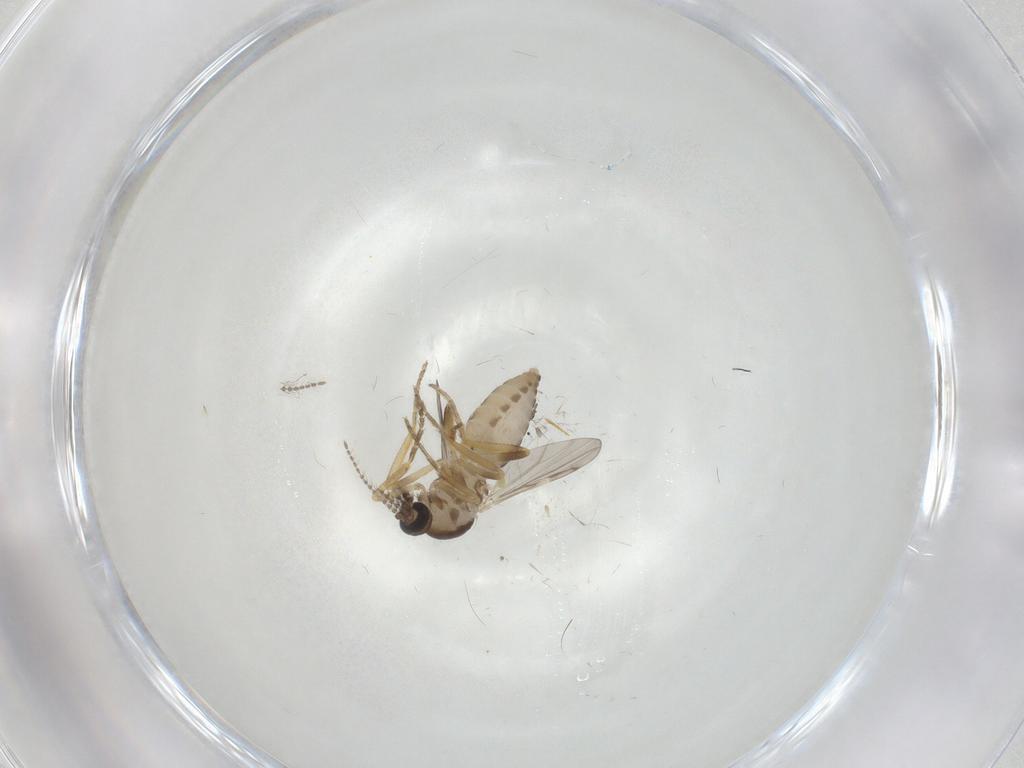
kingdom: Animalia
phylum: Arthropoda
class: Insecta
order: Diptera
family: Ceratopogonidae
